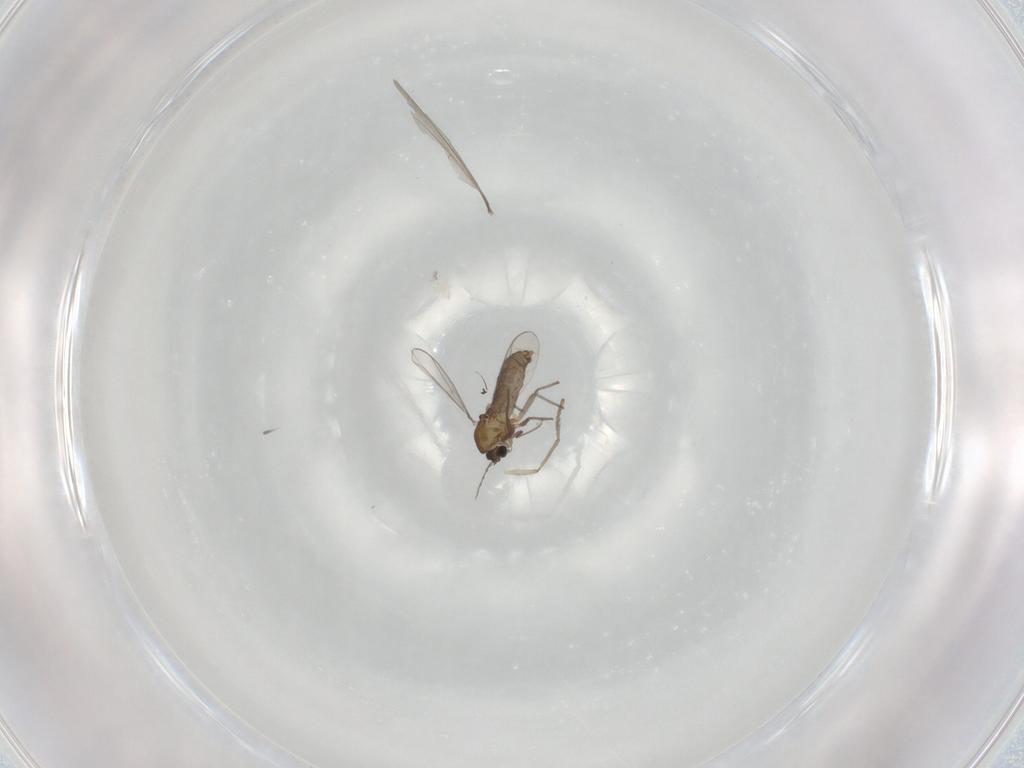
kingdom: Animalia
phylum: Arthropoda
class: Insecta
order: Diptera
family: Chironomidae
